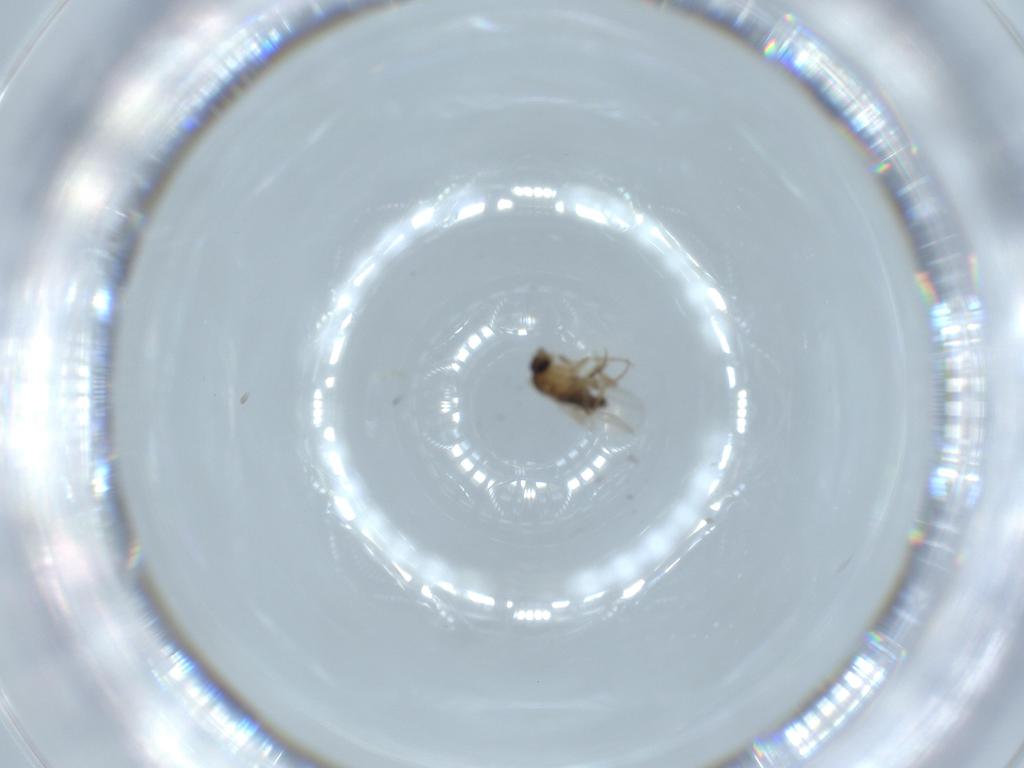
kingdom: Animalia
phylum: Arthropoda
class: Insecta
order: Diptera
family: Phoridae
